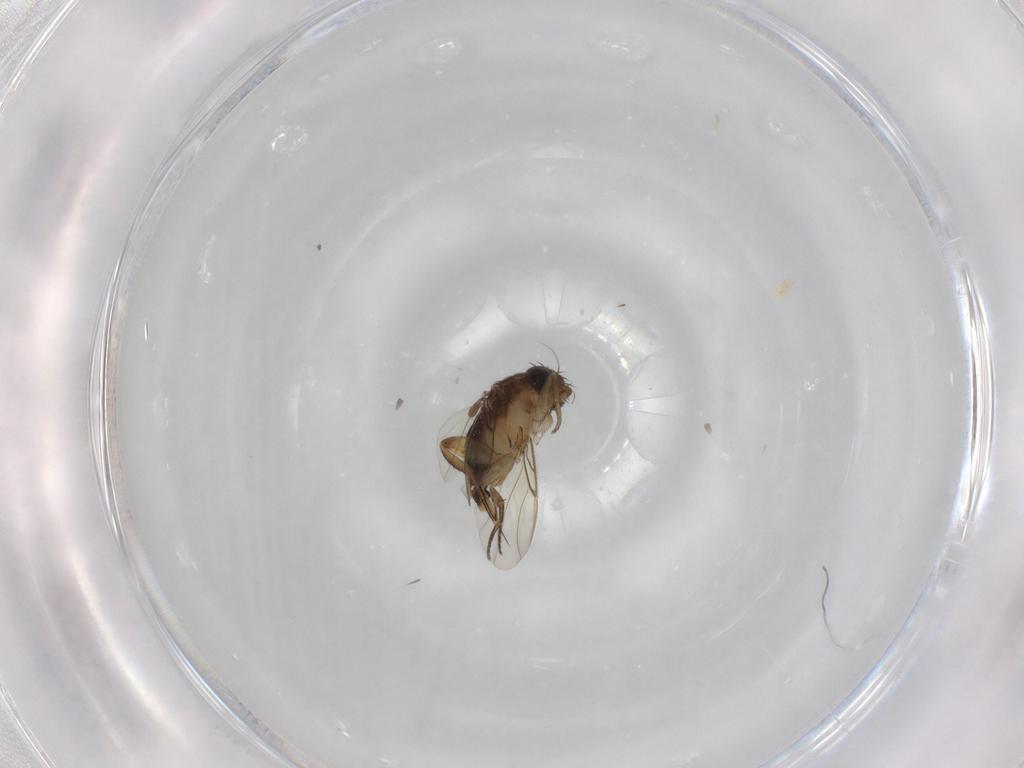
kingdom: Animalia
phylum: Arthropoda
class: Insecta
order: Diptera
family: Phoridae
